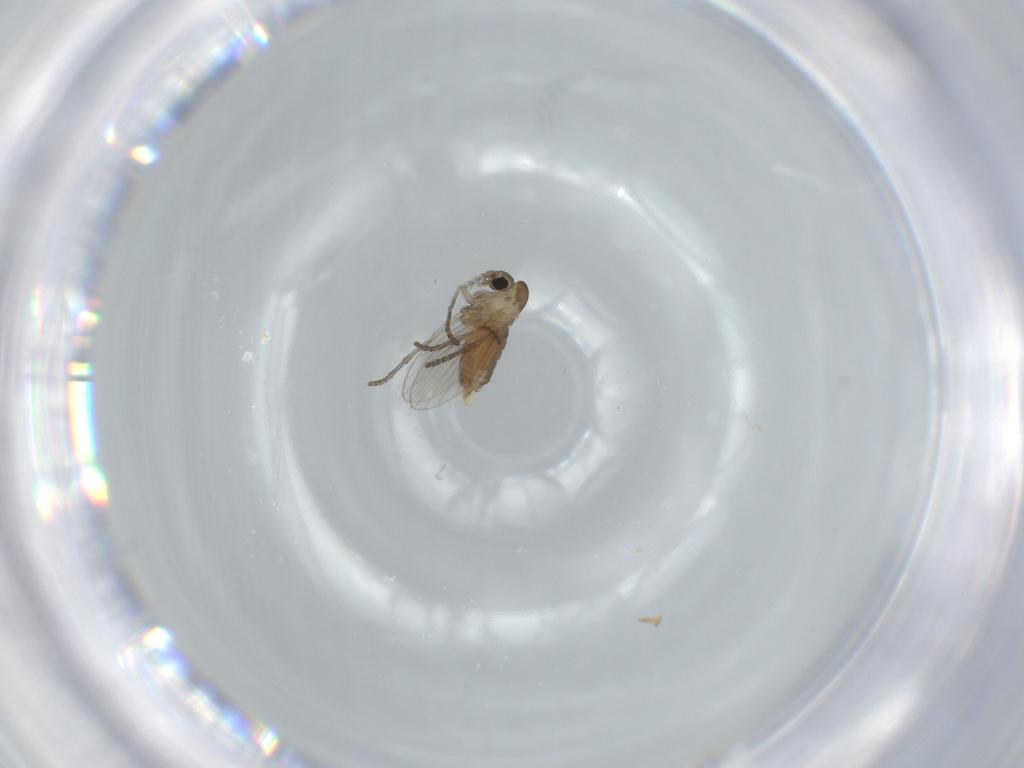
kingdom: Animalia
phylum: Arthropoda
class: Insecta
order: Diptera
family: Psychodidae
